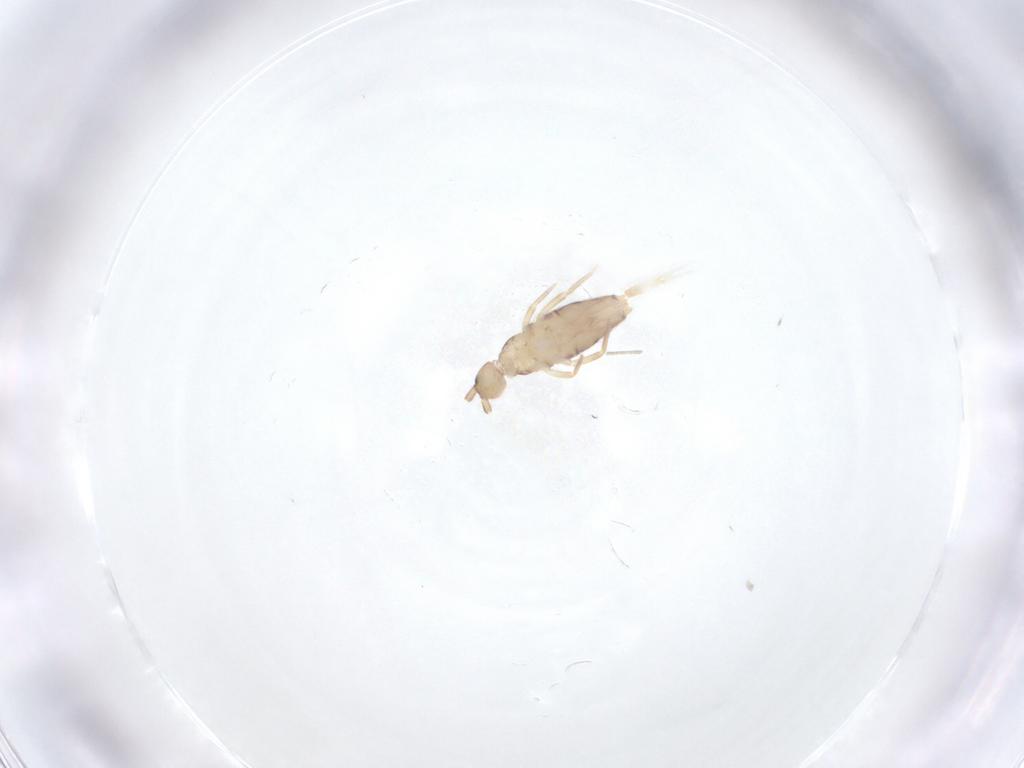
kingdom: Animalia
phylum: Arthropoda
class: Collembola
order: Entomobryomorpha
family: Entomobryidae
